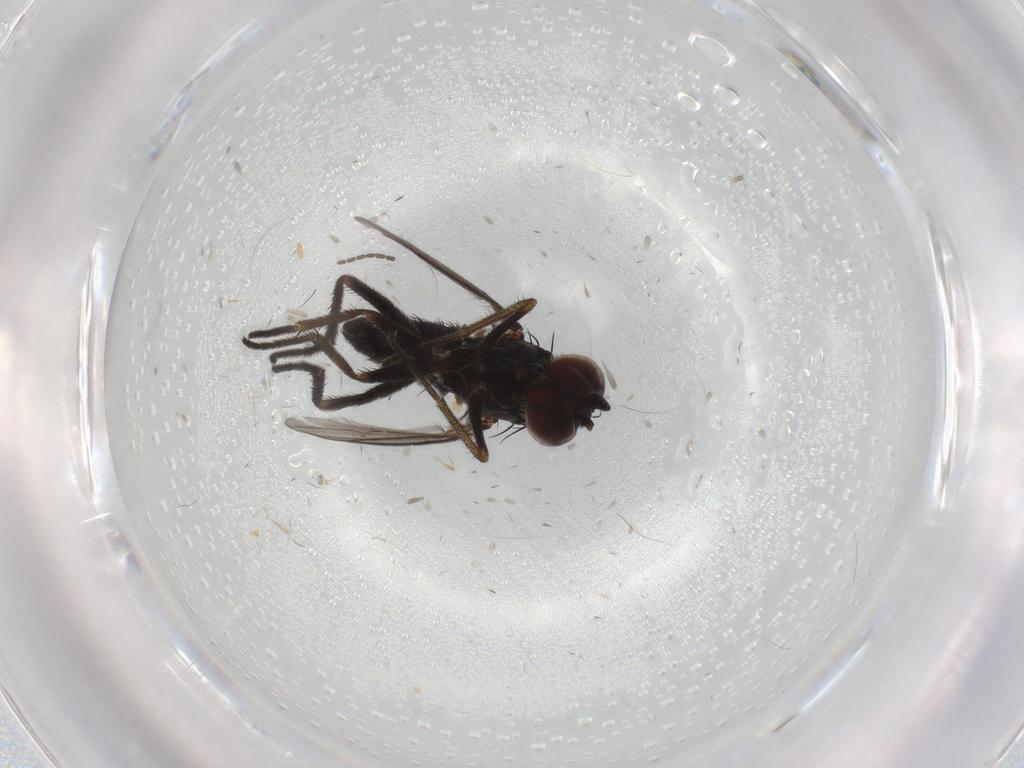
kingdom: Animalia
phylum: Arthropoda
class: Insecta
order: Diptera
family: Dolichopodidae
